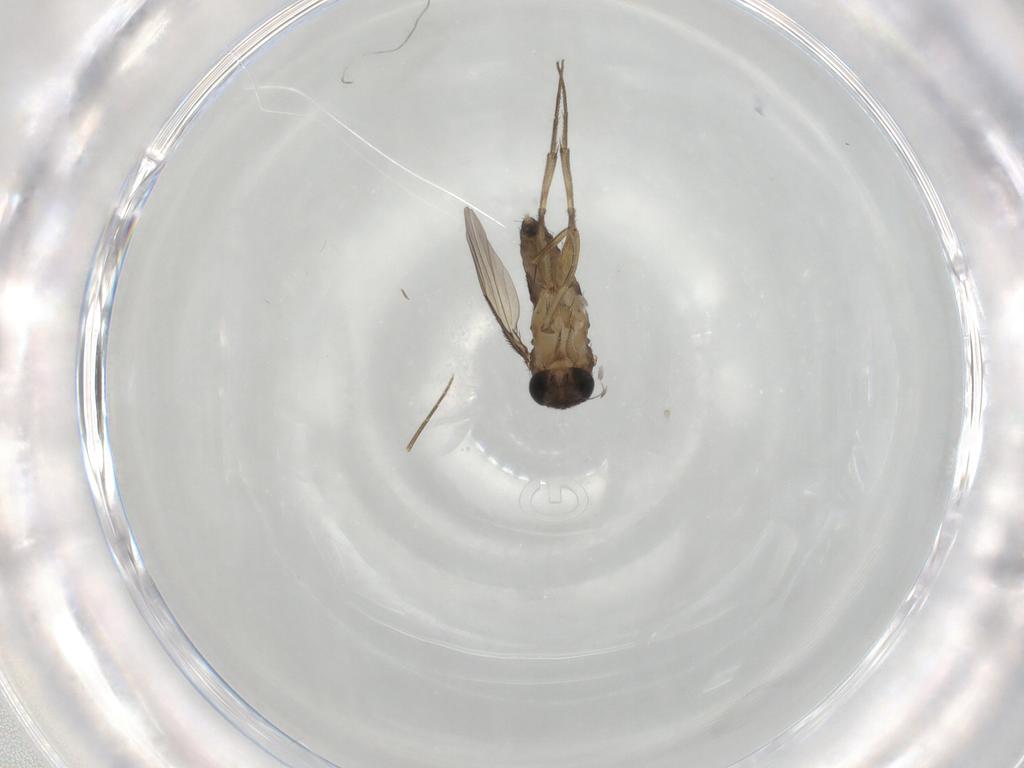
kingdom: Animalia
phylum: Arthropoda
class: Insecta
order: Diptera
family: Phoridae
